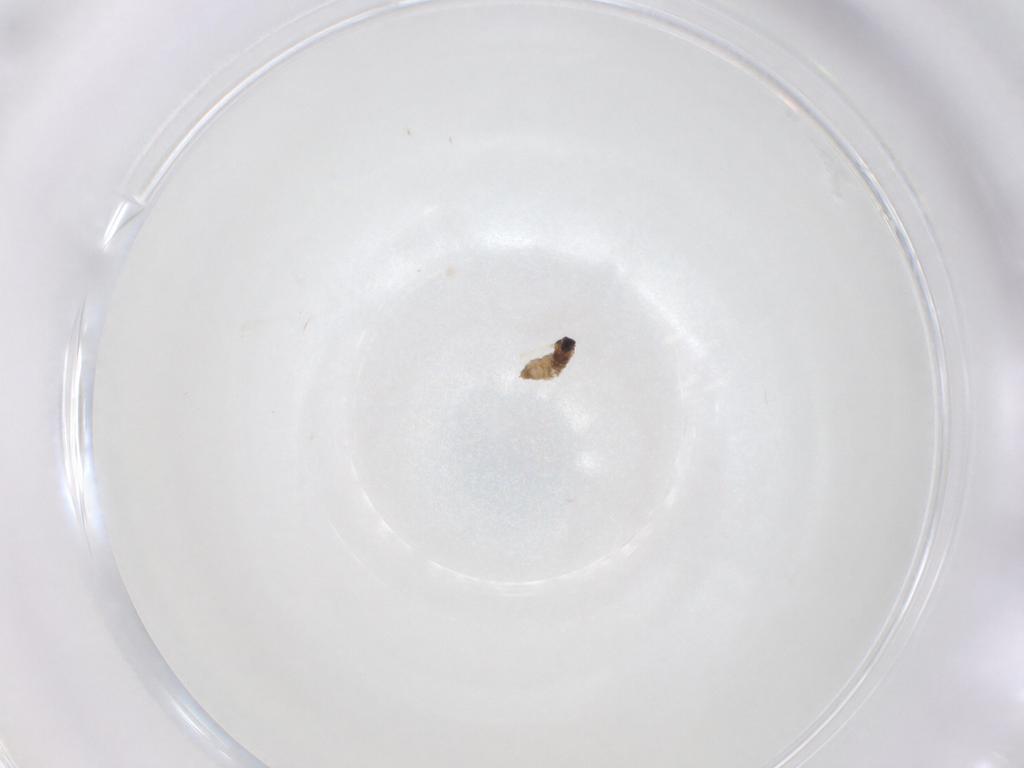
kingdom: Animalia
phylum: Arthropoda
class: Insecta
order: Diptera
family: Cecidomyiidae
